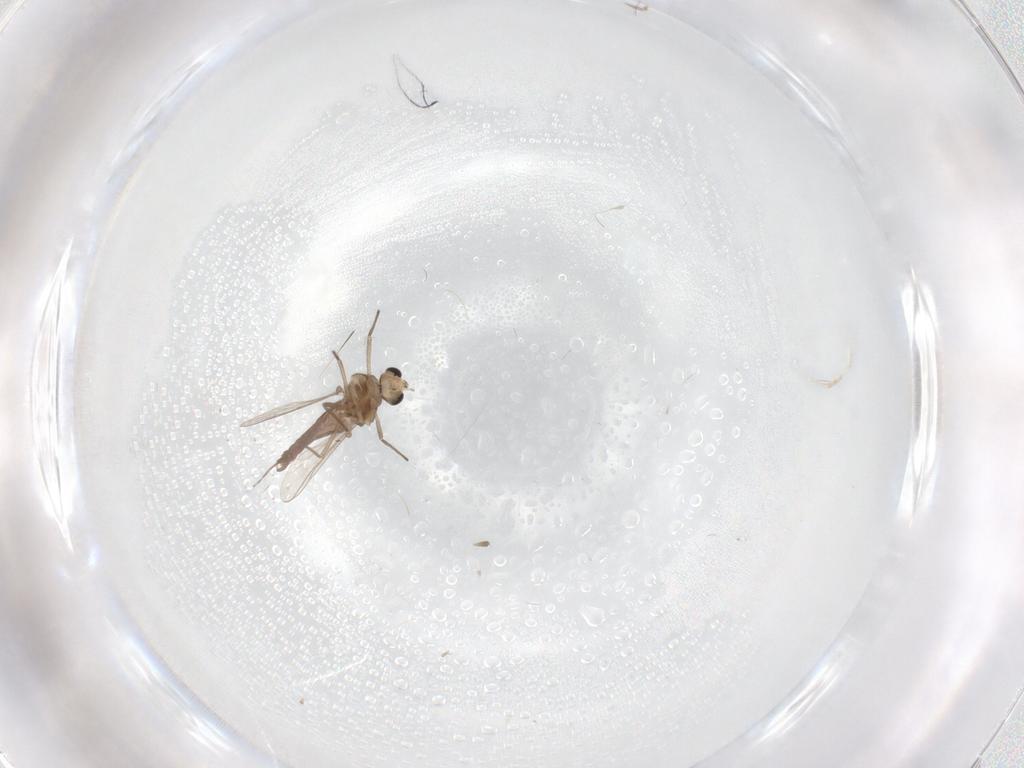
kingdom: Animalia
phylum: Arthropoda
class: Insecta
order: Diptera
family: Chironomidae
